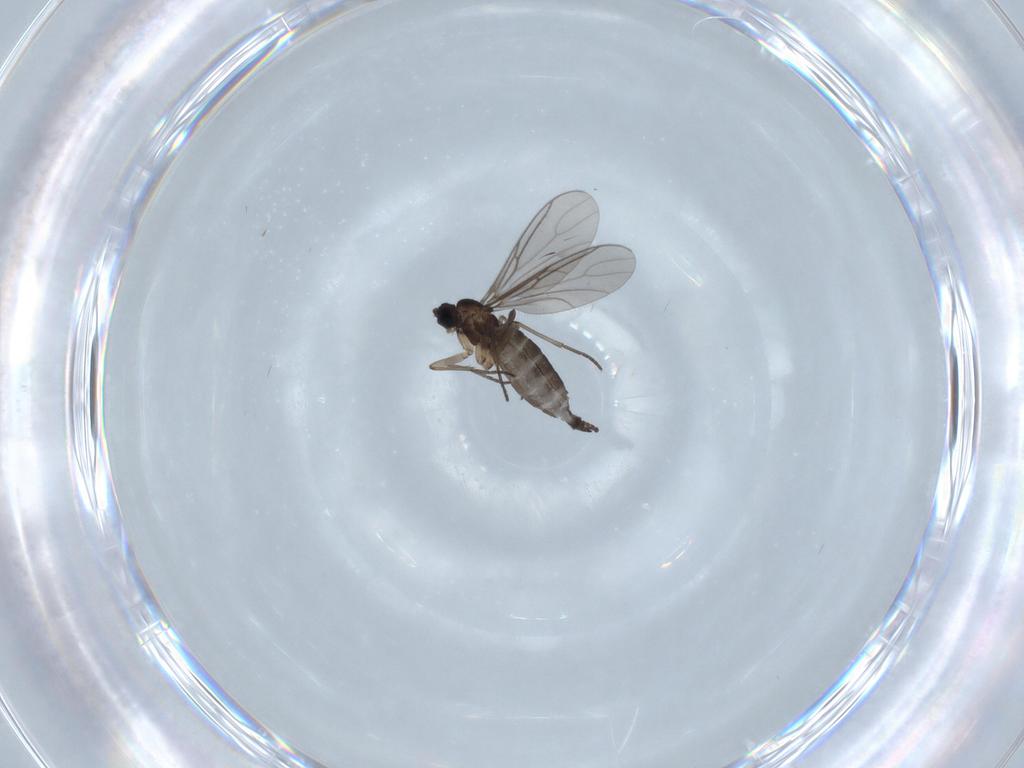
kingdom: Animalia
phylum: Arthropoda
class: Insecta
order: Diptera
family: Sciaridae
